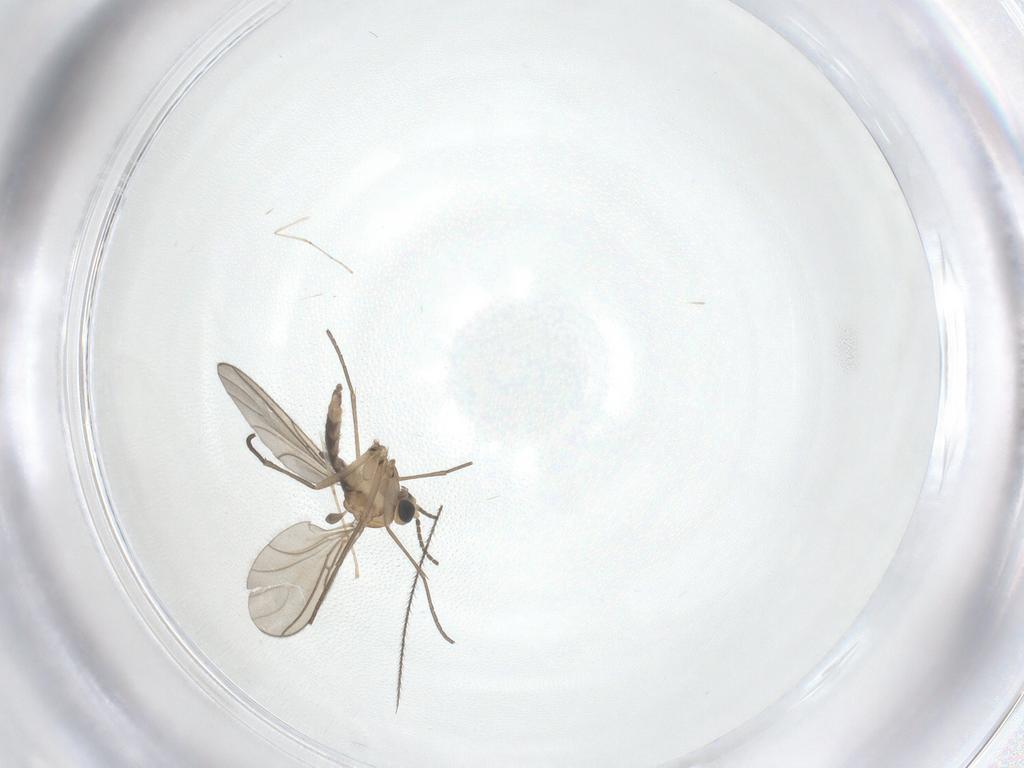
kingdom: Animalia
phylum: Arthropoda
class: Insecta
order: Diptera
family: Sciaridae
